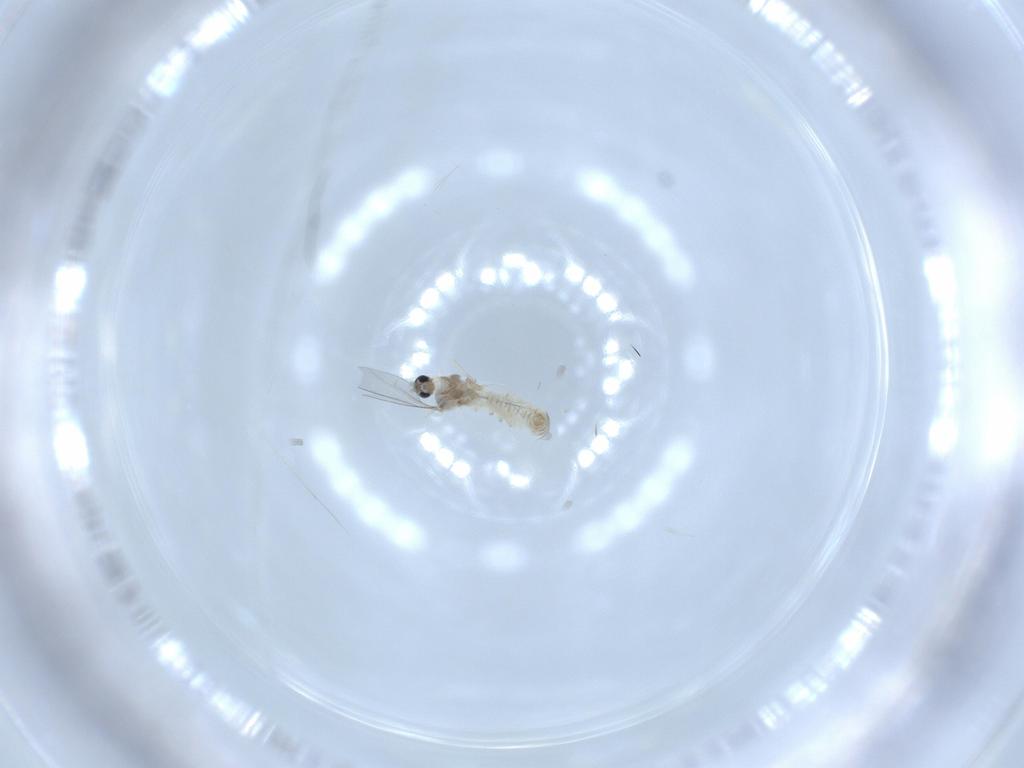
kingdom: Animalia
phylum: Arthropoda
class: Insecta
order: Diptera
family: Cecidomyiidae
